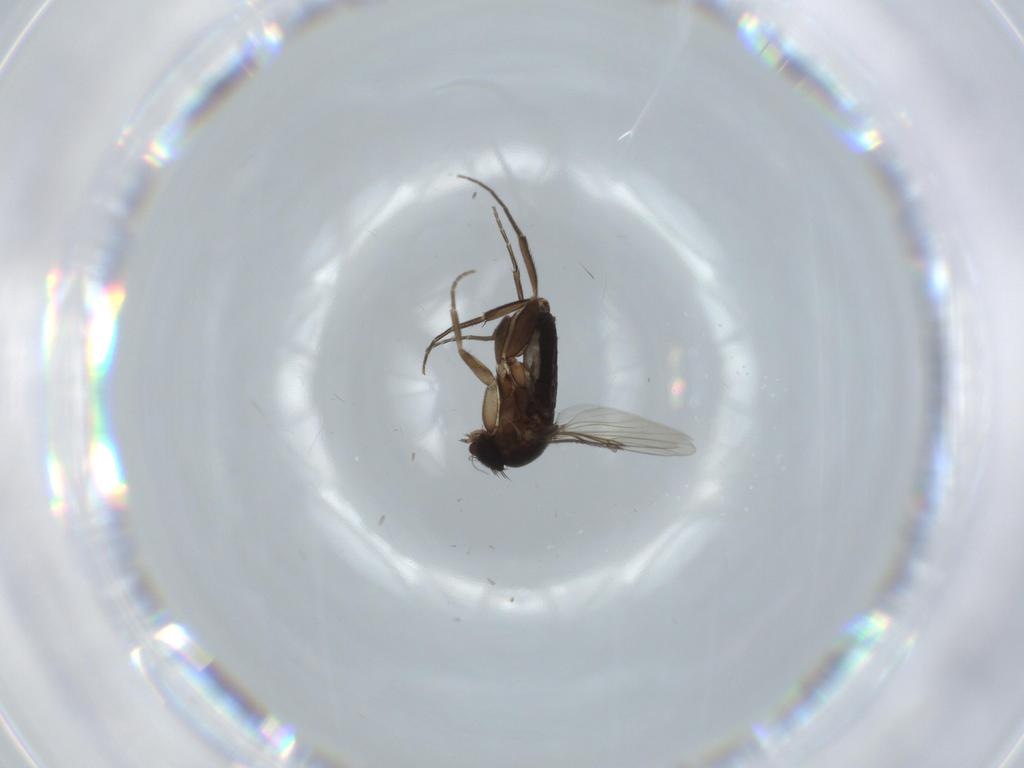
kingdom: Animalia
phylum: Arthropoda
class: Insecta
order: Diptera
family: Phoridae
